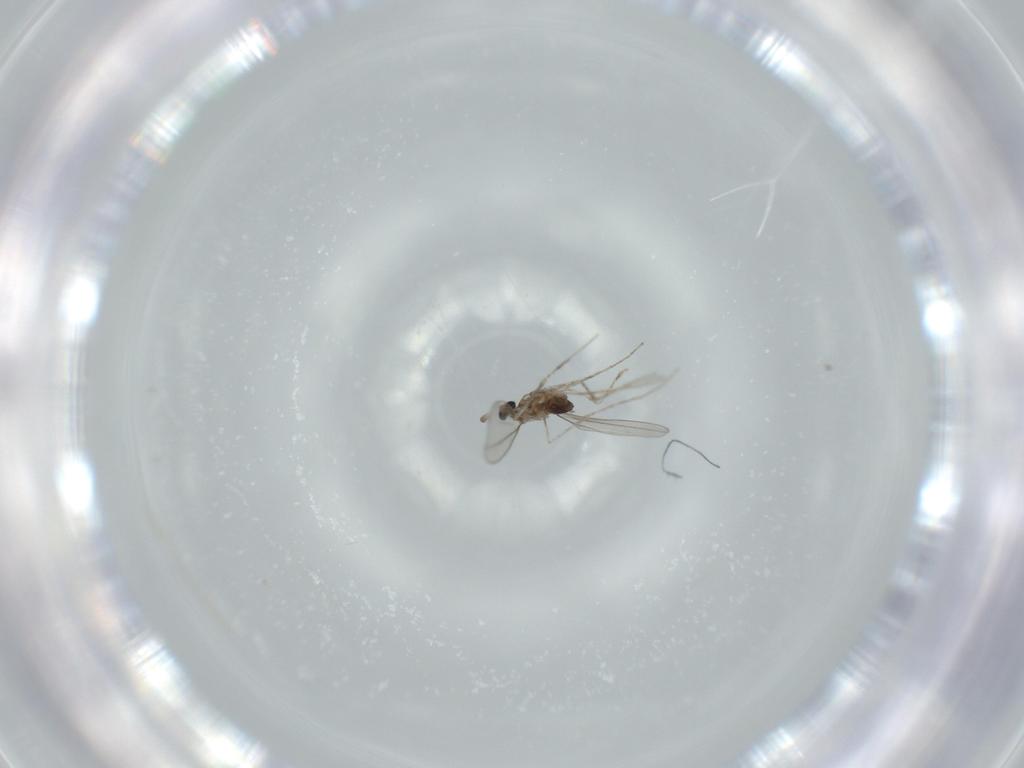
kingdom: Animalia
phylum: Arthropoda
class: Insecta
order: Diptera
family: Cecidomyiidae
